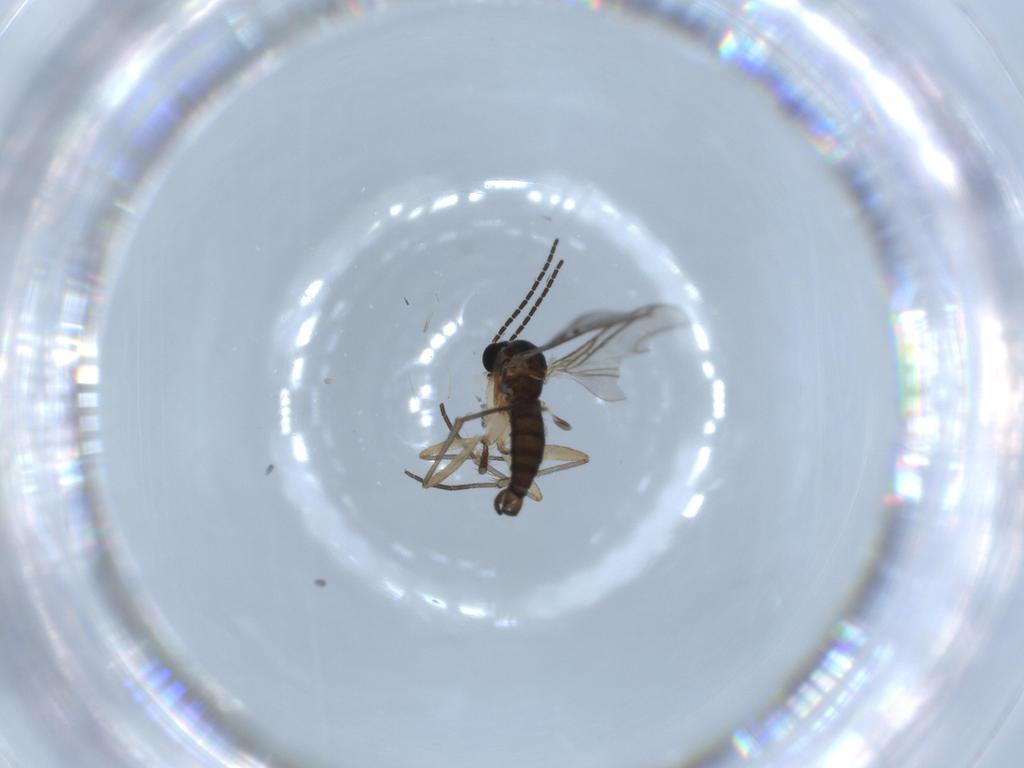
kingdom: Animalia
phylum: Arthropoda
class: Insecta
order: Diptera
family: Sciaridae
